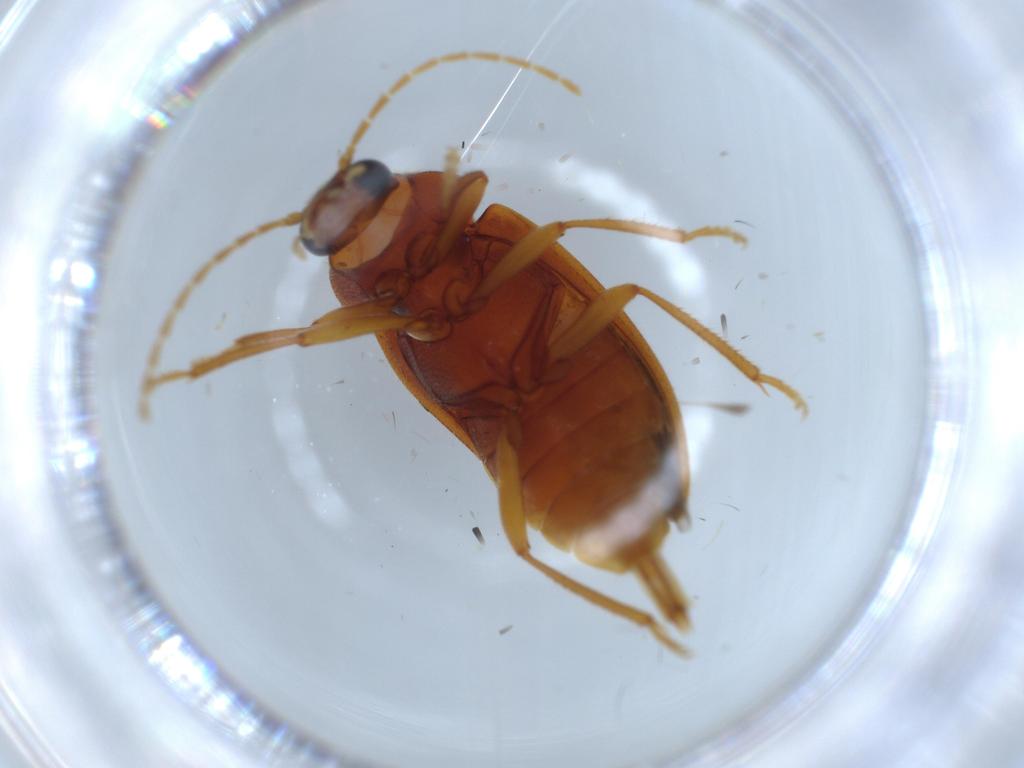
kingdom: Animalia
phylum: Arthropoda
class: Insecta
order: Coleoptera
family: Ptilodactylidae
